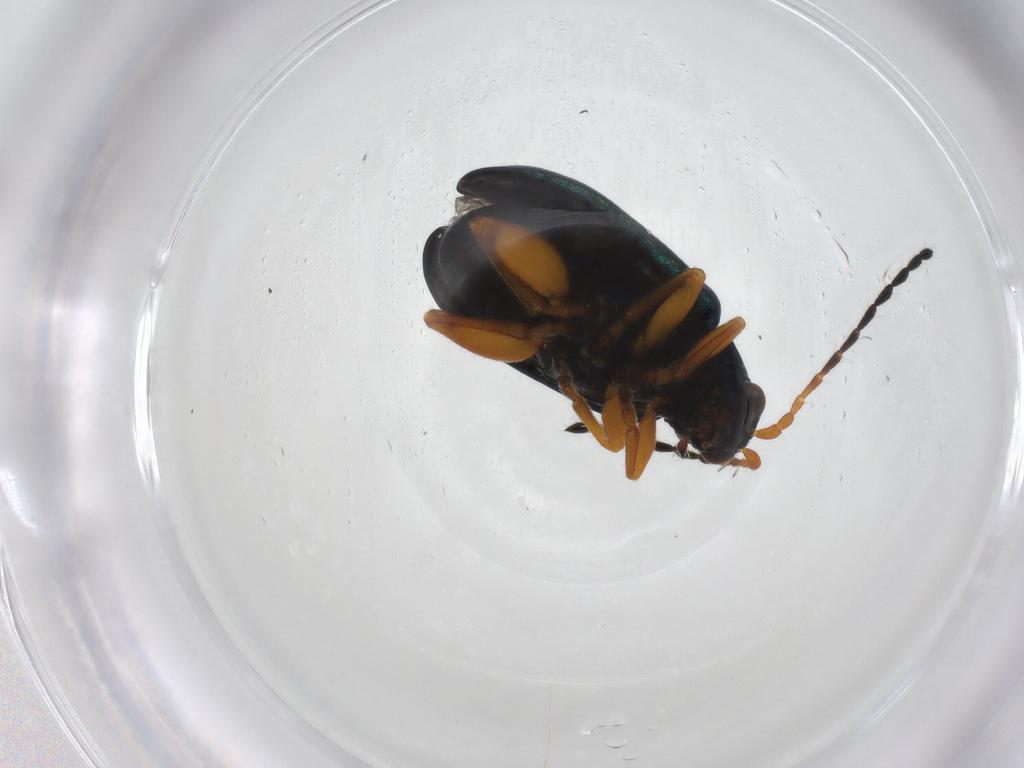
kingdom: Animalia
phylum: Arthropoda
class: Insecta
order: Coleoptera
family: Chrysomelidae
